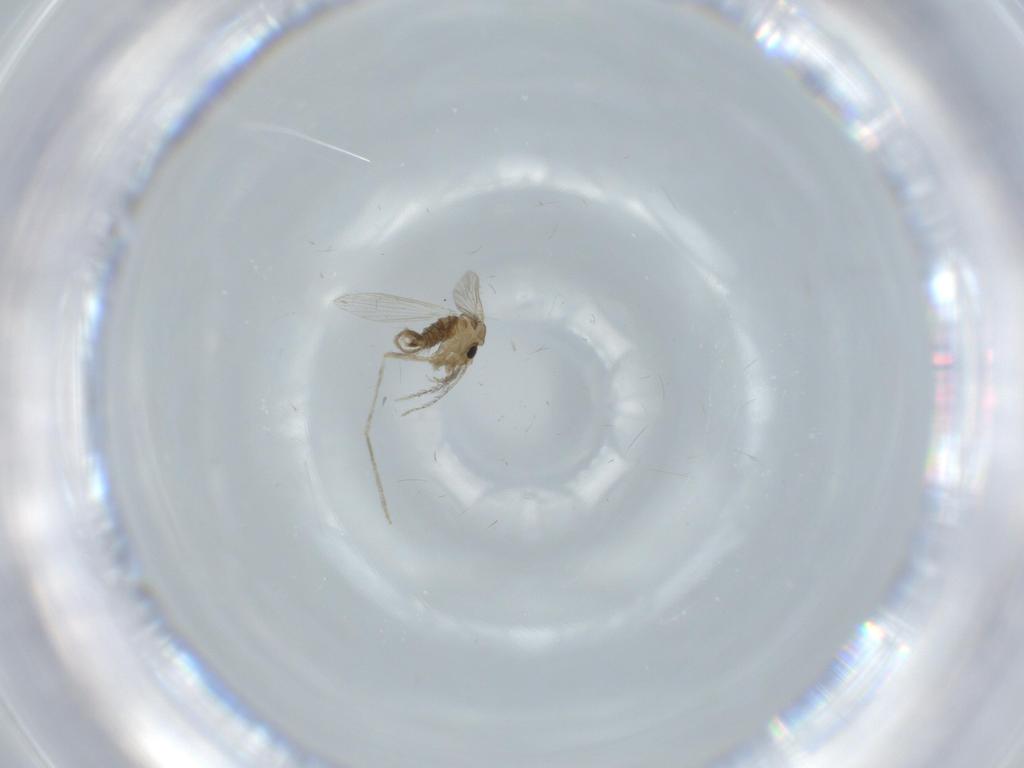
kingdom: Animalia
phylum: Arthropoda
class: Insecta
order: Diptera
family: Psychodidae
